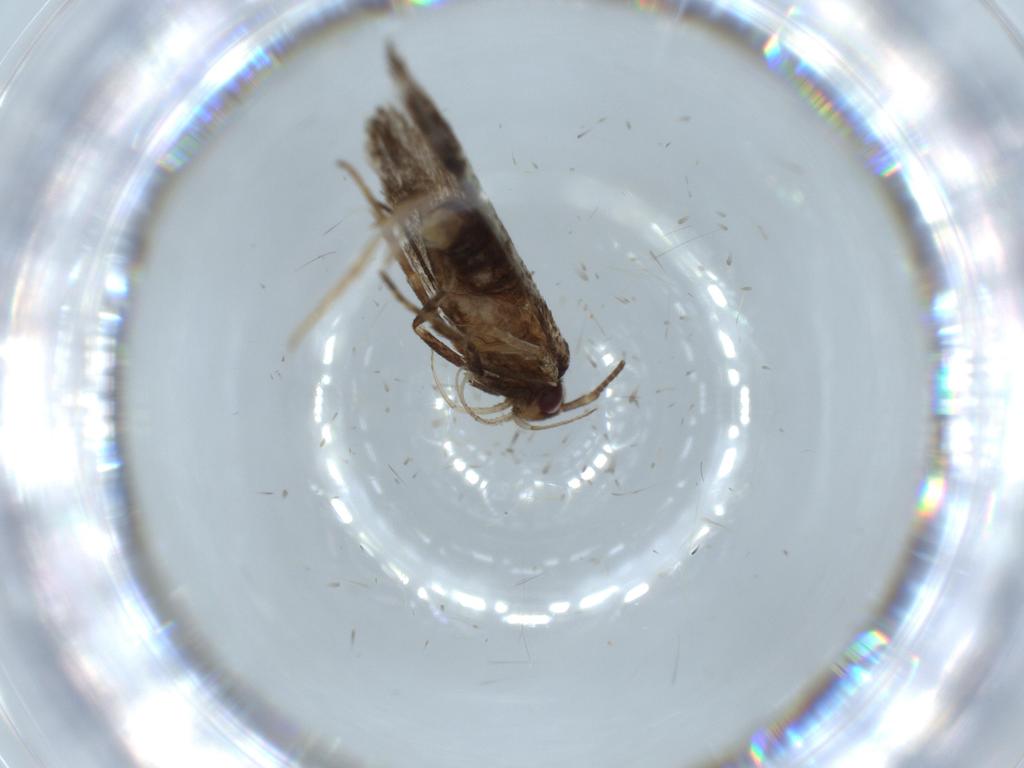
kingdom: Animalia
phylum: Arthropoda
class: Insecta
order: Lepidoptera
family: Cosmopterigidae
